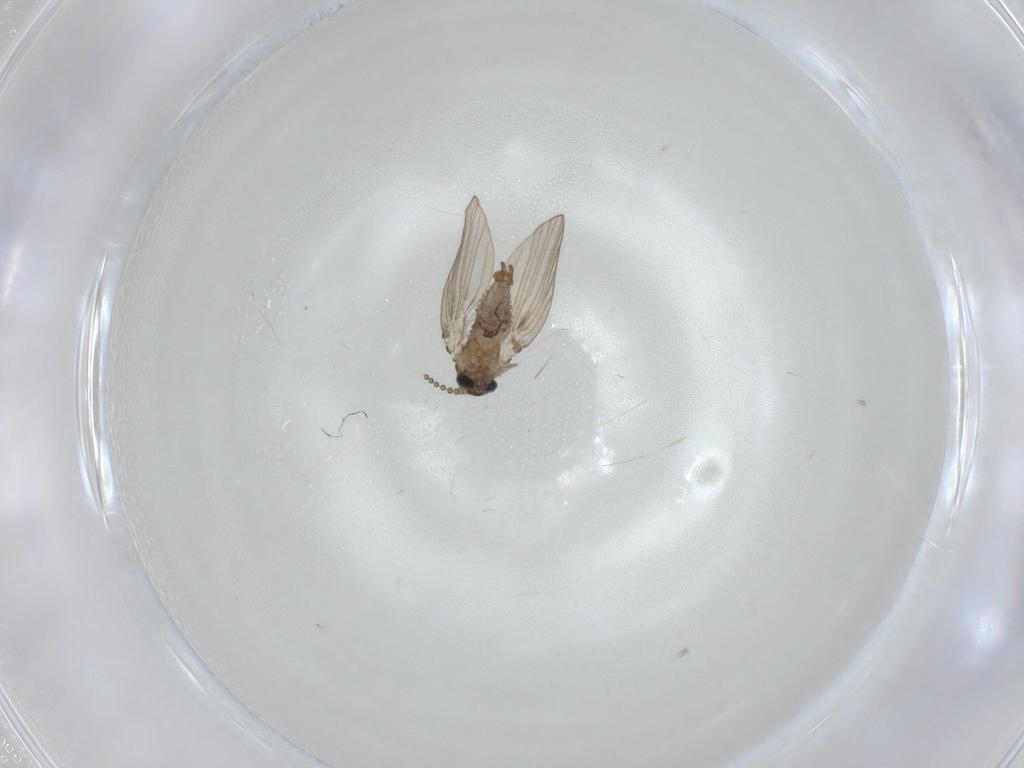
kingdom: Animalia
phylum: Arthropoda
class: Insecta
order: Diptera
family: Psychodidae
